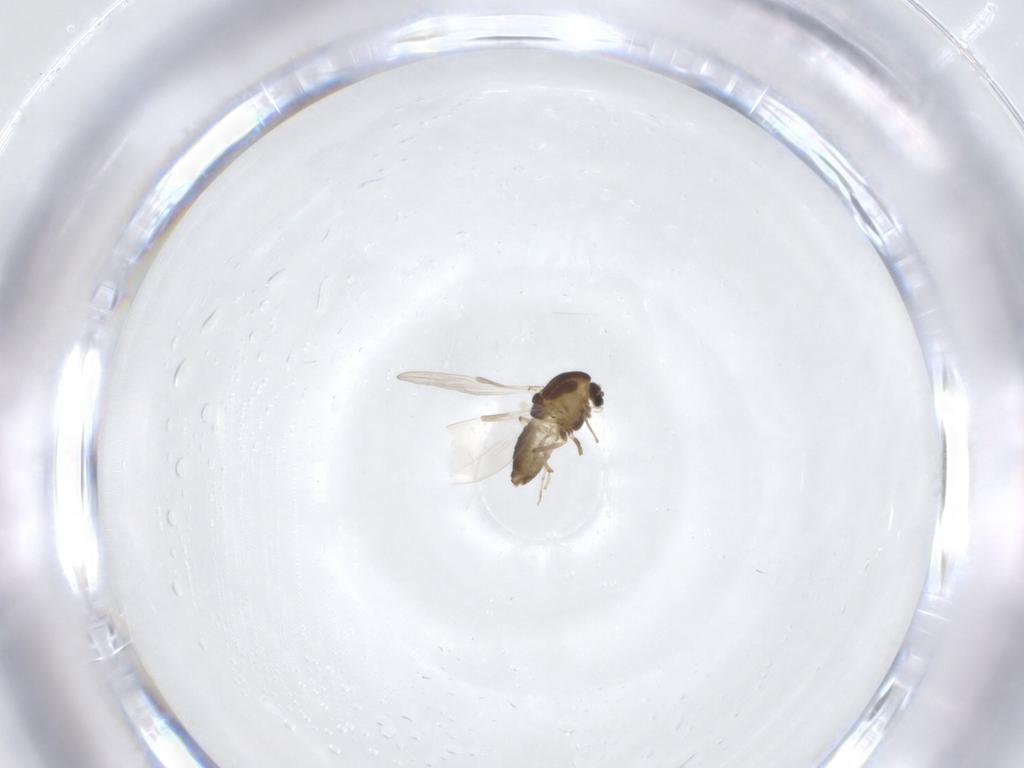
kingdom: Animalia
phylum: Arthropoda
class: Insecta
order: Diptera
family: Chironomidae
